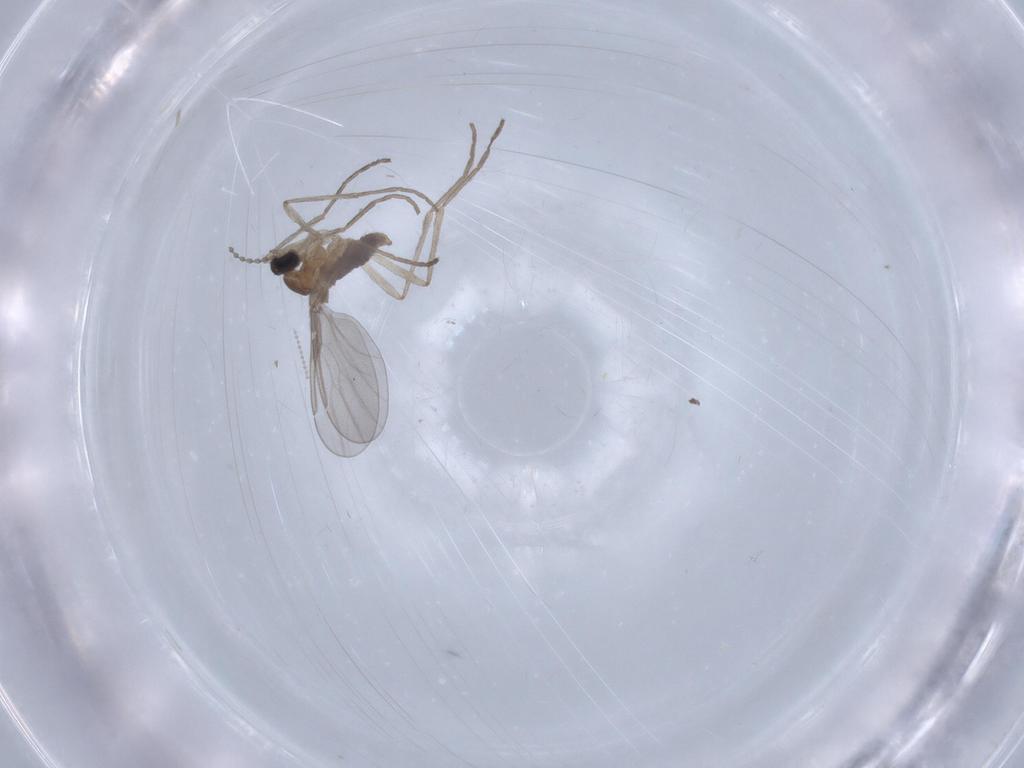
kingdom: Animalia
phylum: Arthropoda
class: Insecta
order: Diptera
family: Cecidomyiidae
